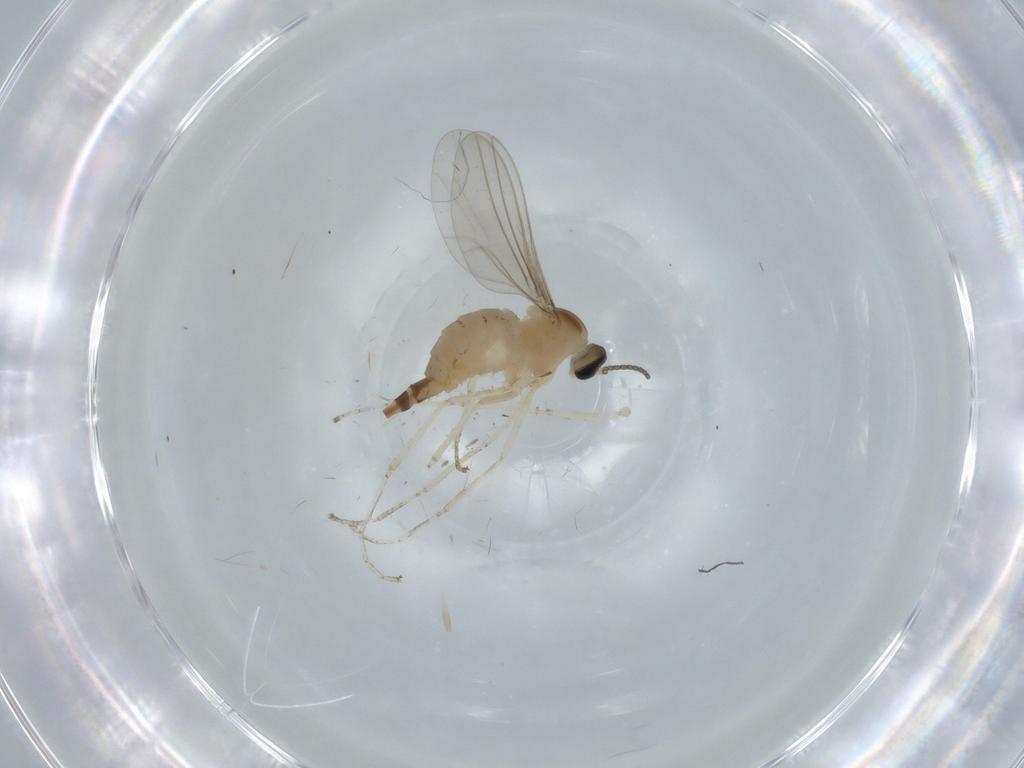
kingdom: Animalia
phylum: Arthropoda
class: Insecta
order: Diptera
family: Cecidomyiidae
